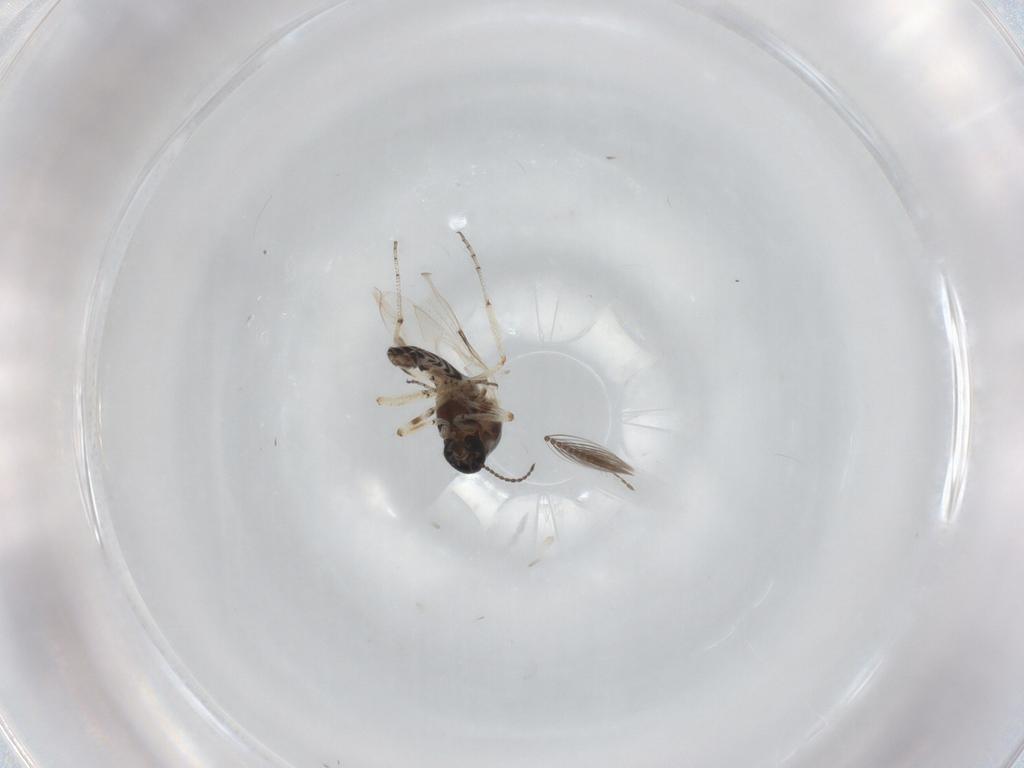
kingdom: Animalia
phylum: Arthropoda
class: Insecta
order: Diptera
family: Ceratopogonidae
